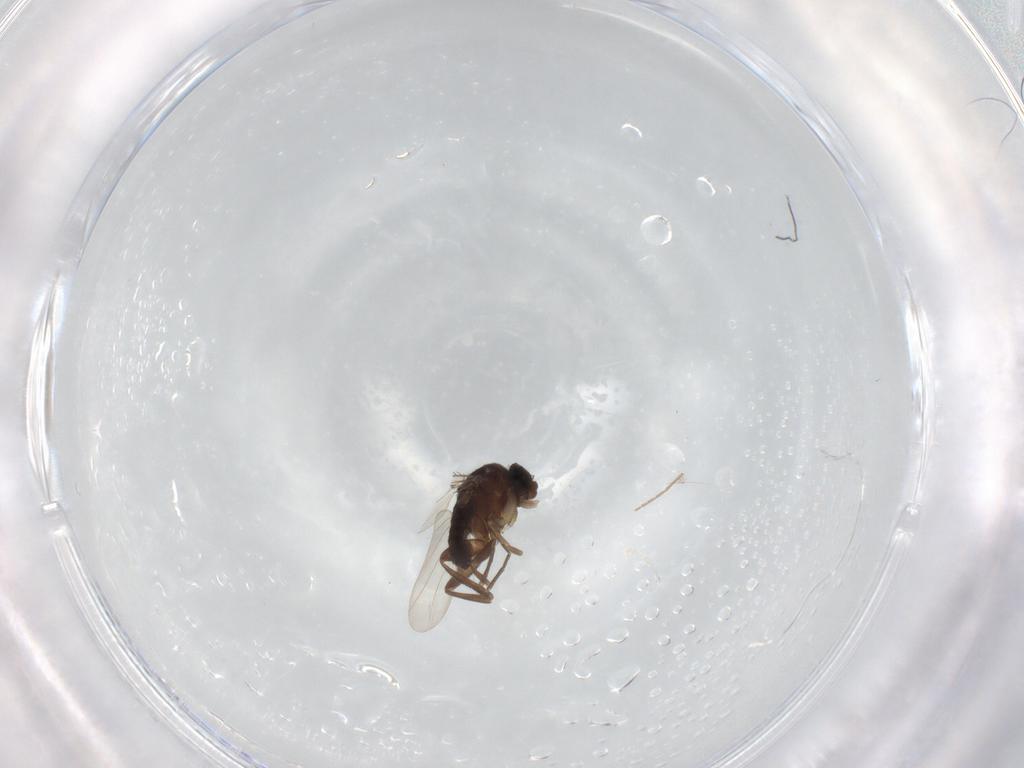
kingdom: Animalia
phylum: Arthropoda
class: Insecta
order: Diptera
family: Phoridae
